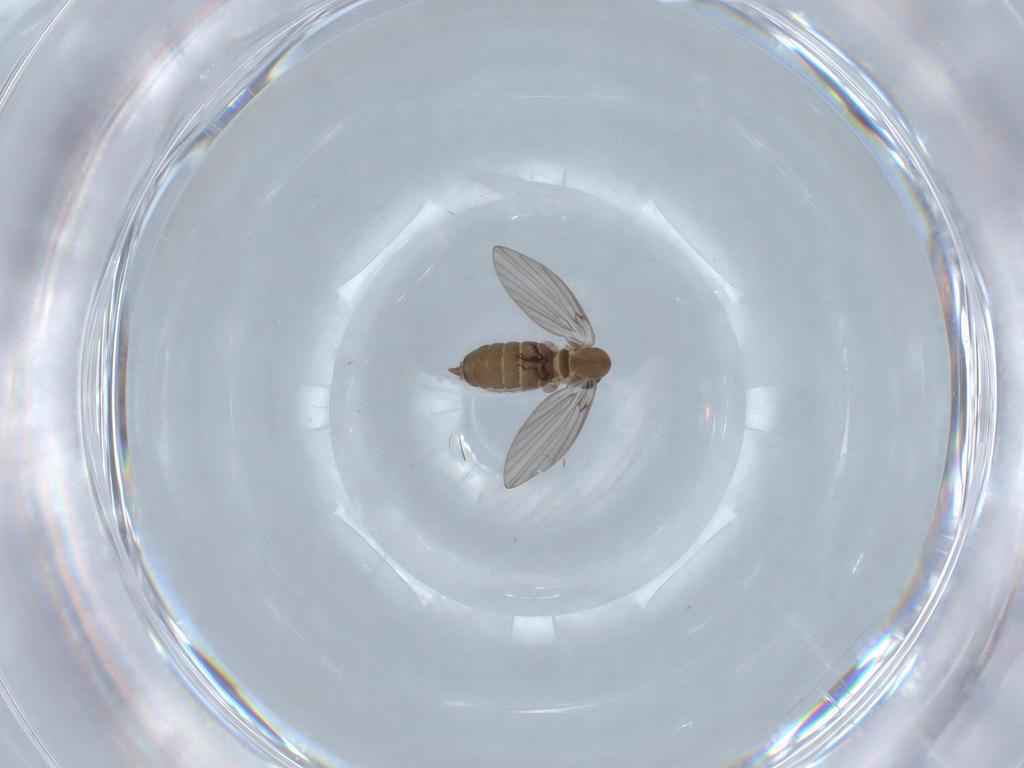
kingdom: Animalia
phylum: Arthropoda
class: Insecta
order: Diptera
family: Psychodidae
